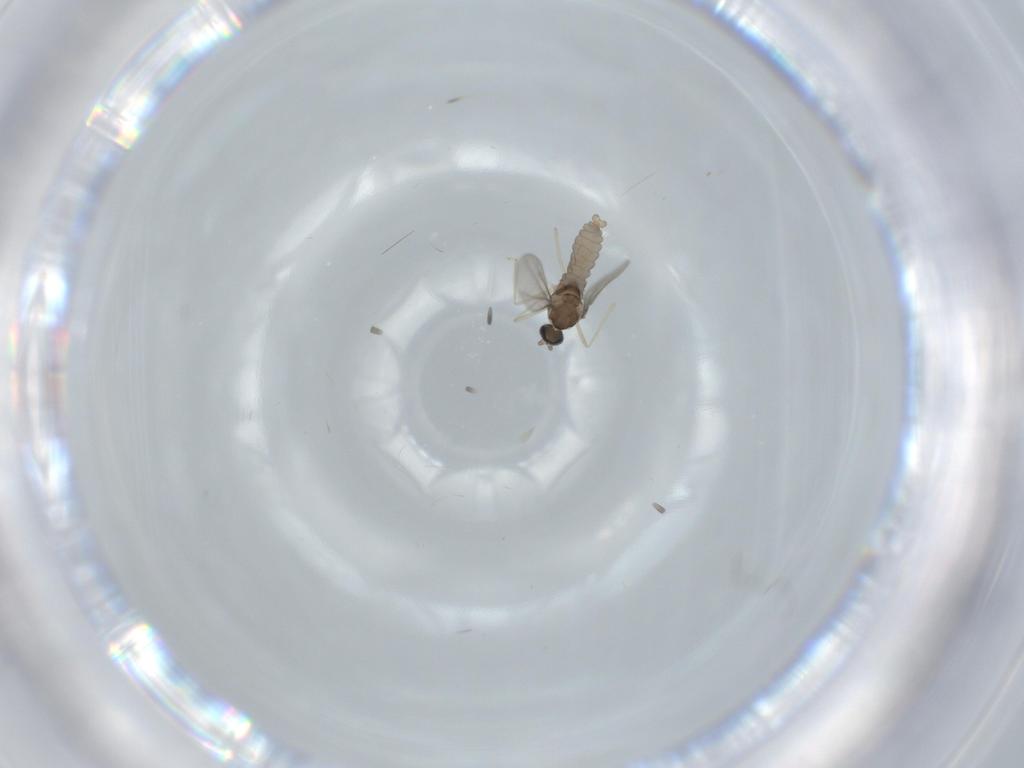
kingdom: Animalia
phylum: Arthropoda
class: Insecta
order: Diptera
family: Cecidomyiidae
